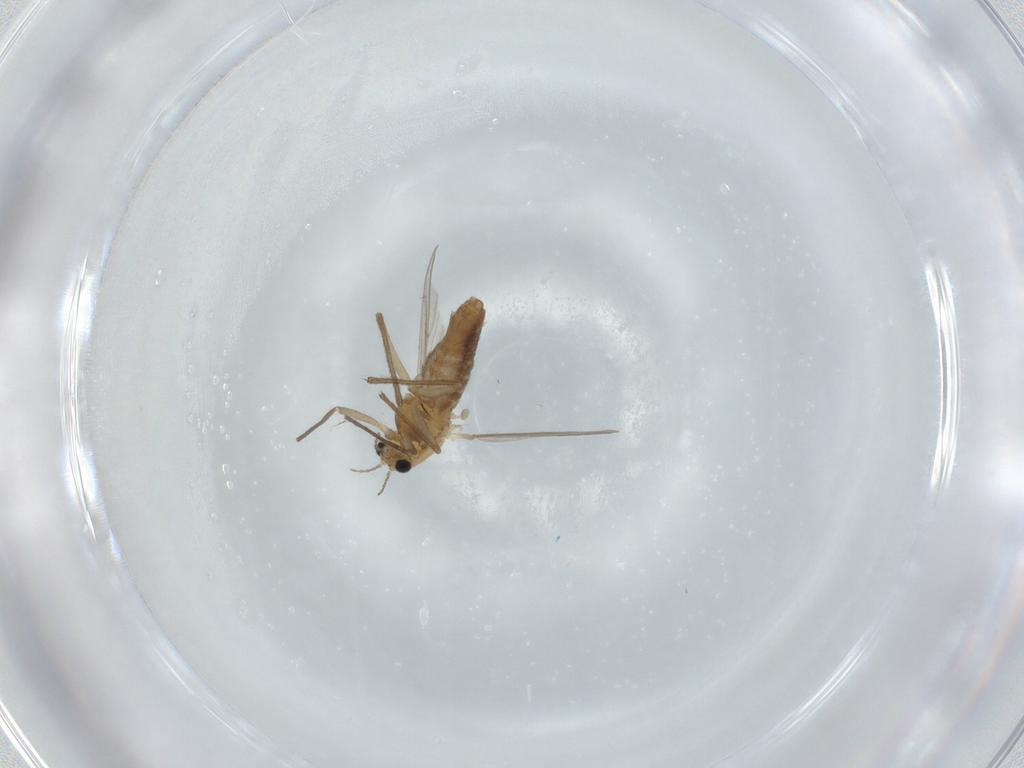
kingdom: Animalia
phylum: Arthropoda
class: Insecta
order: Diptera
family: Chironomidae
